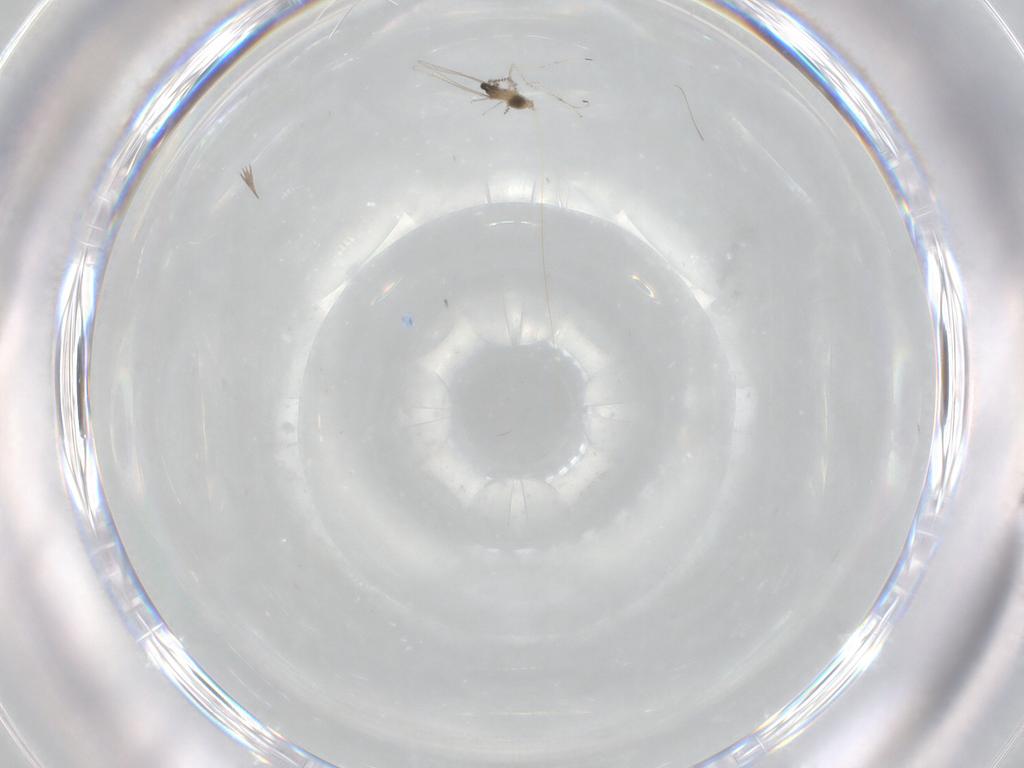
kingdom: Animalia
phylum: Arthropoda
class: Insecta
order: Diptera
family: Cecidomyiidae
